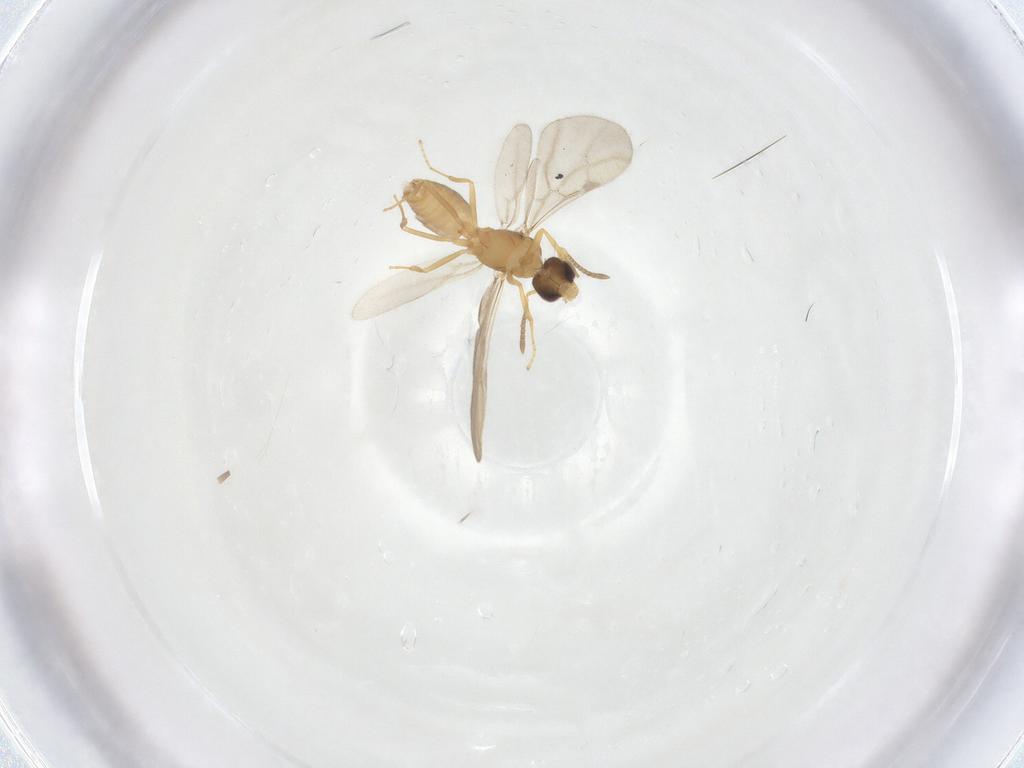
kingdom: Animalia
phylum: Arthropoda
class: Insecta
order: Hymenoptera
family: Formicidae
